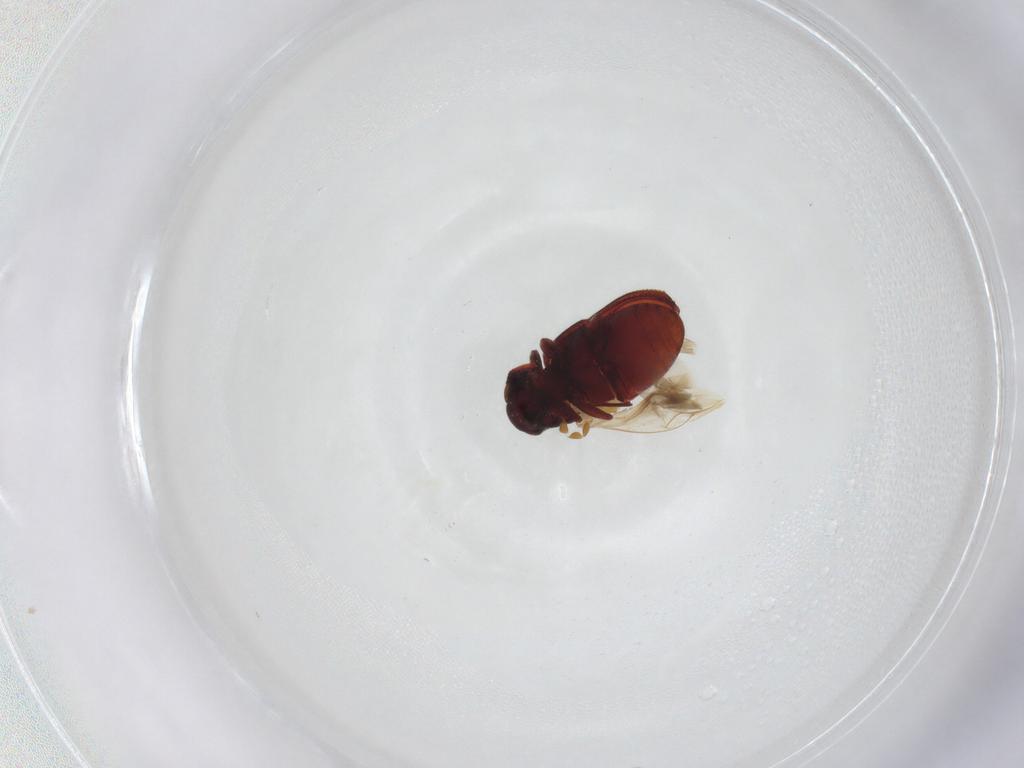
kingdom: Animalia
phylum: Arthropoda
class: Insecta
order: Coleoptera
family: Ptinidae
